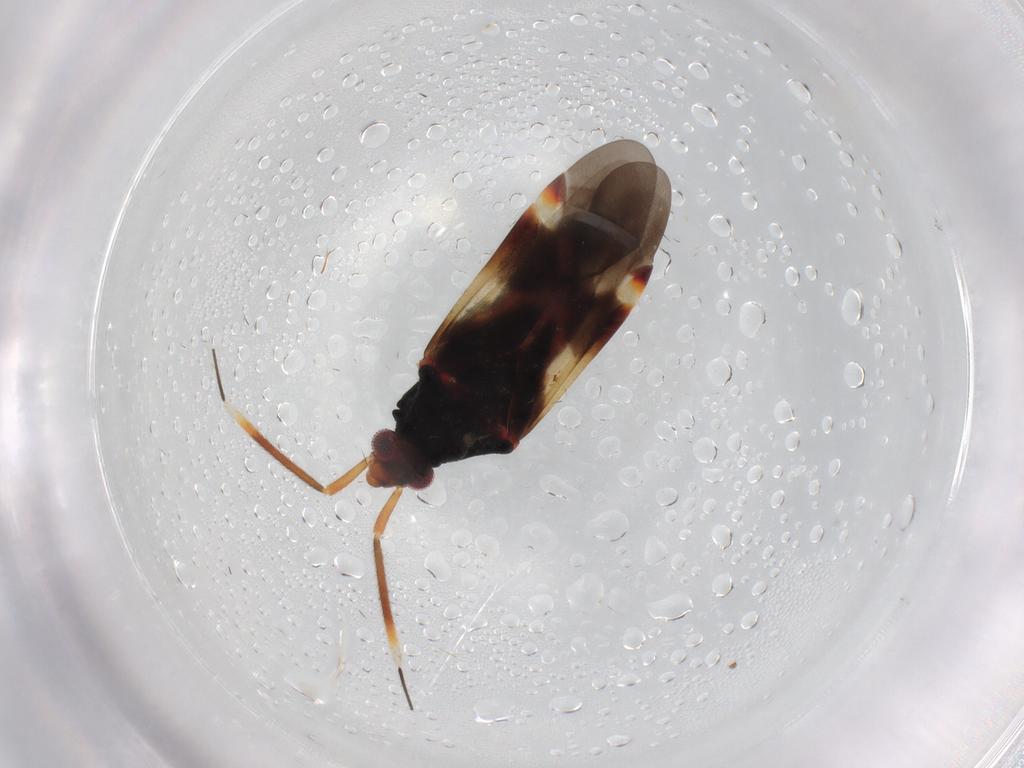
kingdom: Animalia
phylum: Arthropoda
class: Insecta
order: Hemiptera
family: Miridae
